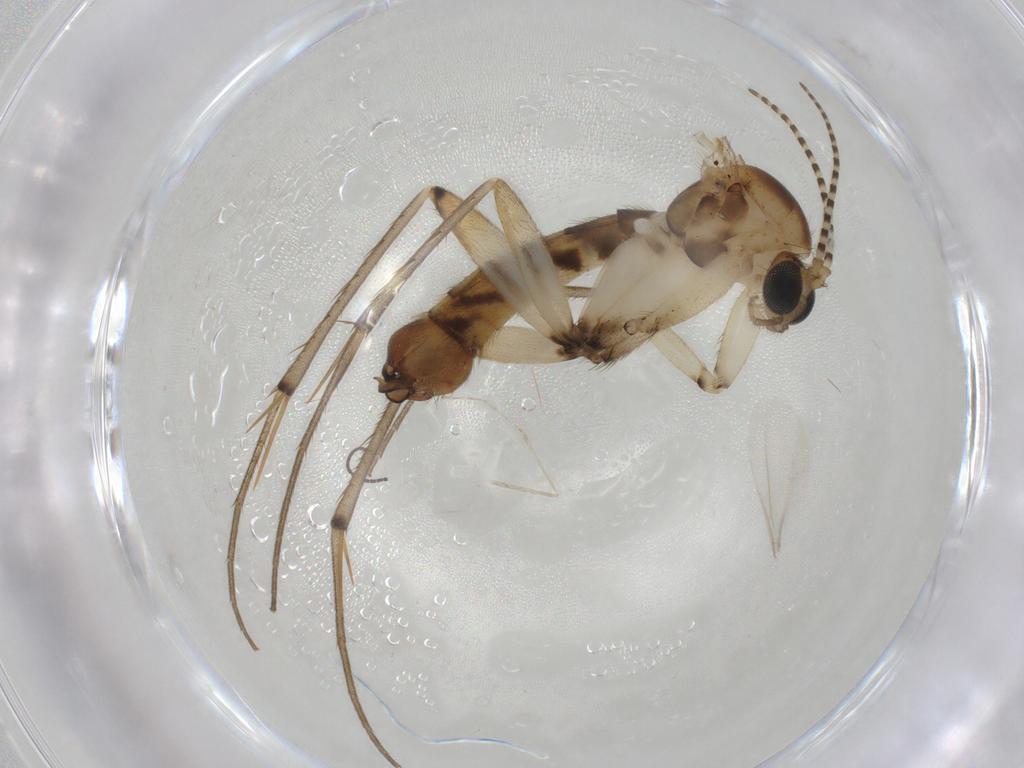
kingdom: Animalia
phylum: Arthropoda
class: Insecta
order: Diptera
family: Mycetophilidae
